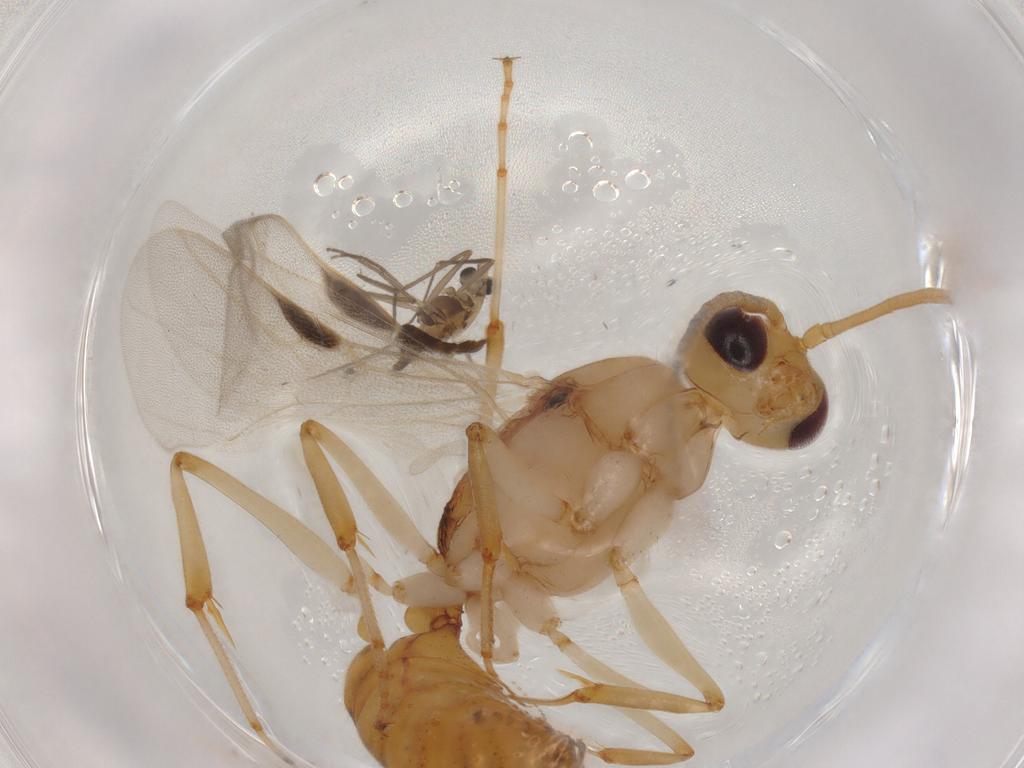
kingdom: Animalia
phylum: Arthropoda
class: Insecta
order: Diptera
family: Chironomidae
